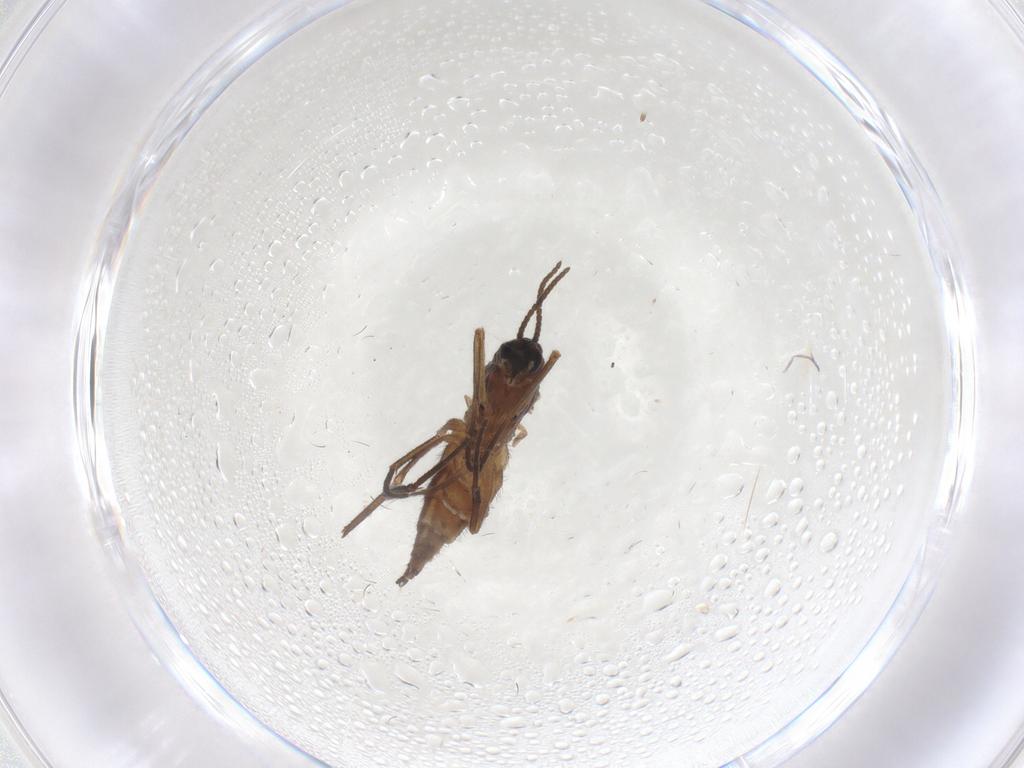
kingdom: Animalia
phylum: Arthropoda
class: Insecta
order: Diptera
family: Sciaridae
